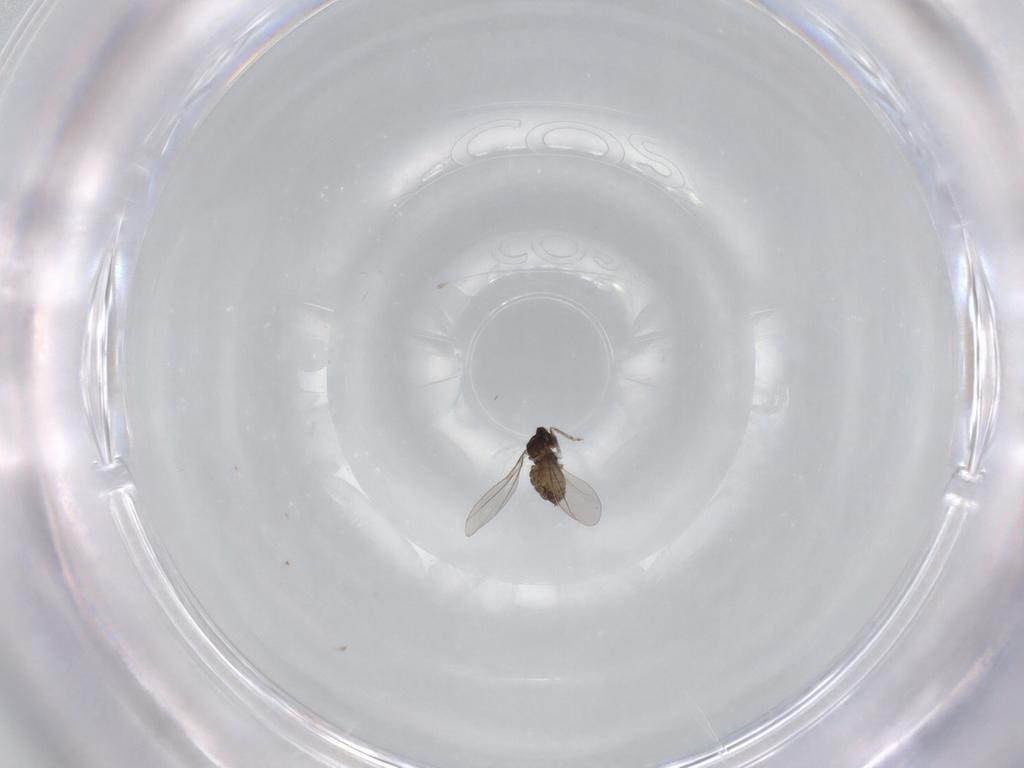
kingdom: Animalia
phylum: Arthropoda
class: Insecta
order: Diptera
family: Cecidomyiidae
